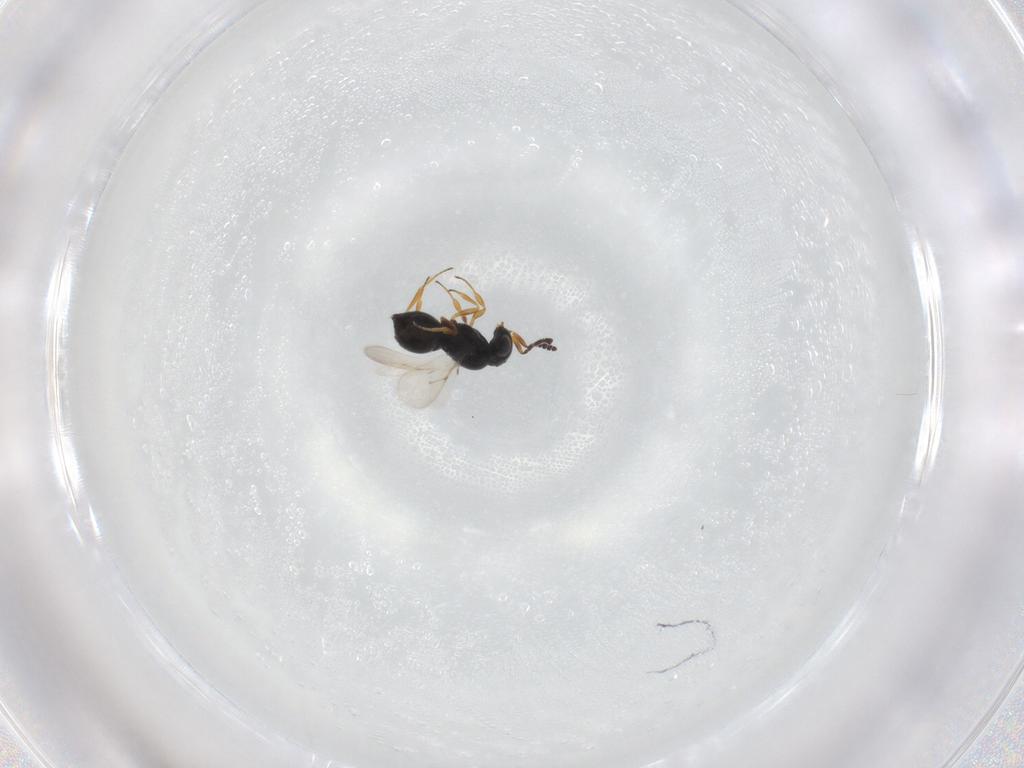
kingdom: Animalia
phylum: Arthropoda
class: Insecta
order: Hymenoptera
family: Scelionidae
